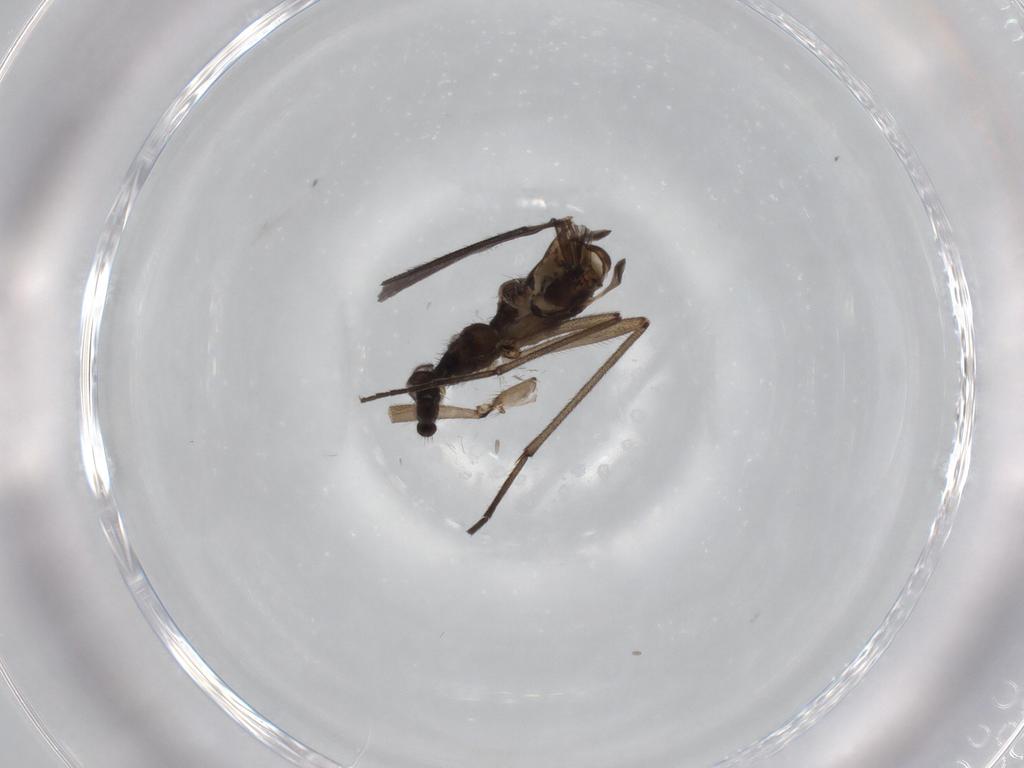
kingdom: Animalia
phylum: Arthropoda
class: Insecta
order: Diptera
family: Sciaridae
